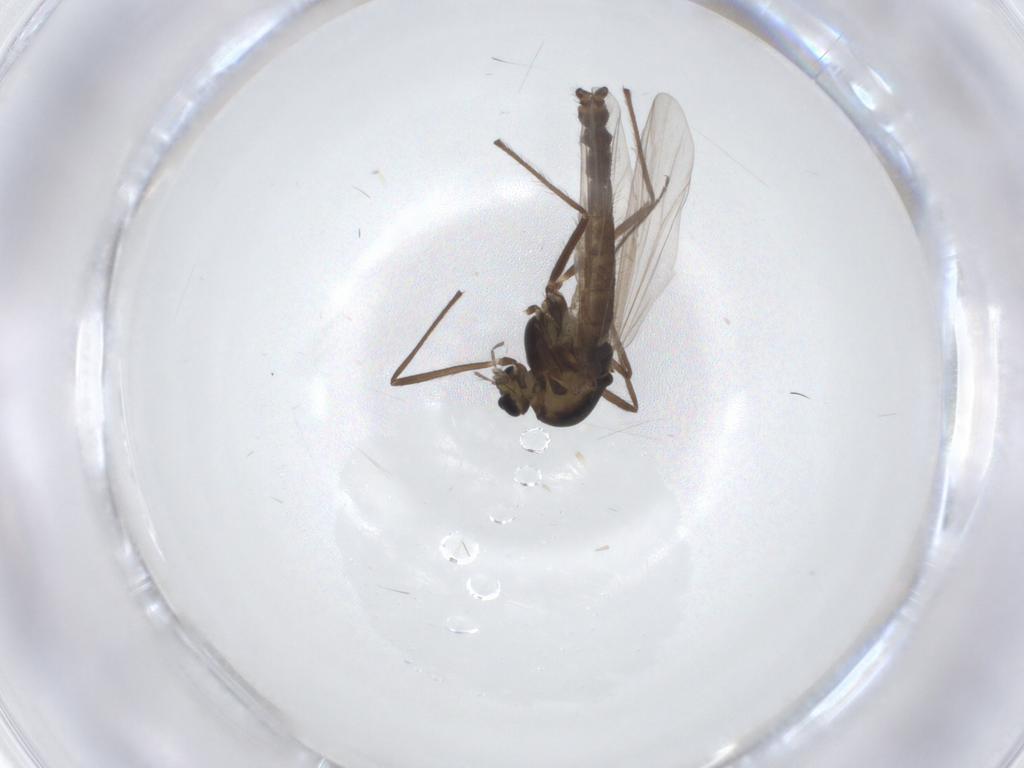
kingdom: Animalia
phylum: Arthropoda
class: Insecta
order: Diptera
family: Chironomidae
